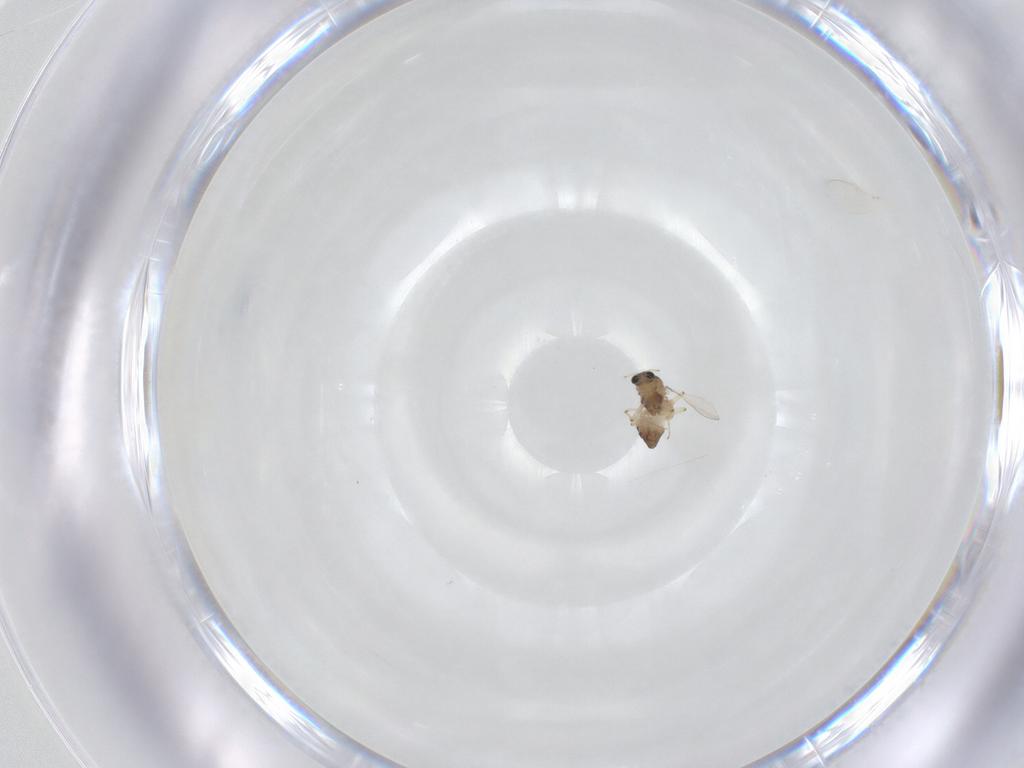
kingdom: Animalia
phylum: Arthropoda
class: Insecta
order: Diptera
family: Chironomidae
